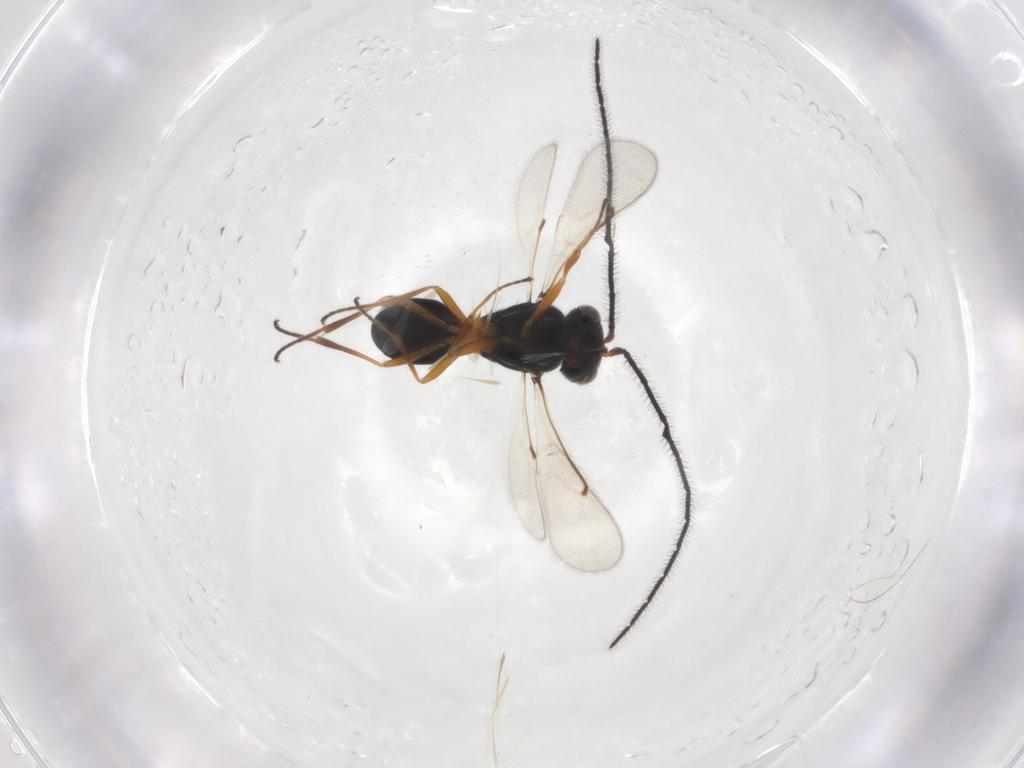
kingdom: Animalia
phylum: Arthropoda
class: Insecta
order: Hymenoptera
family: Scelionidae
